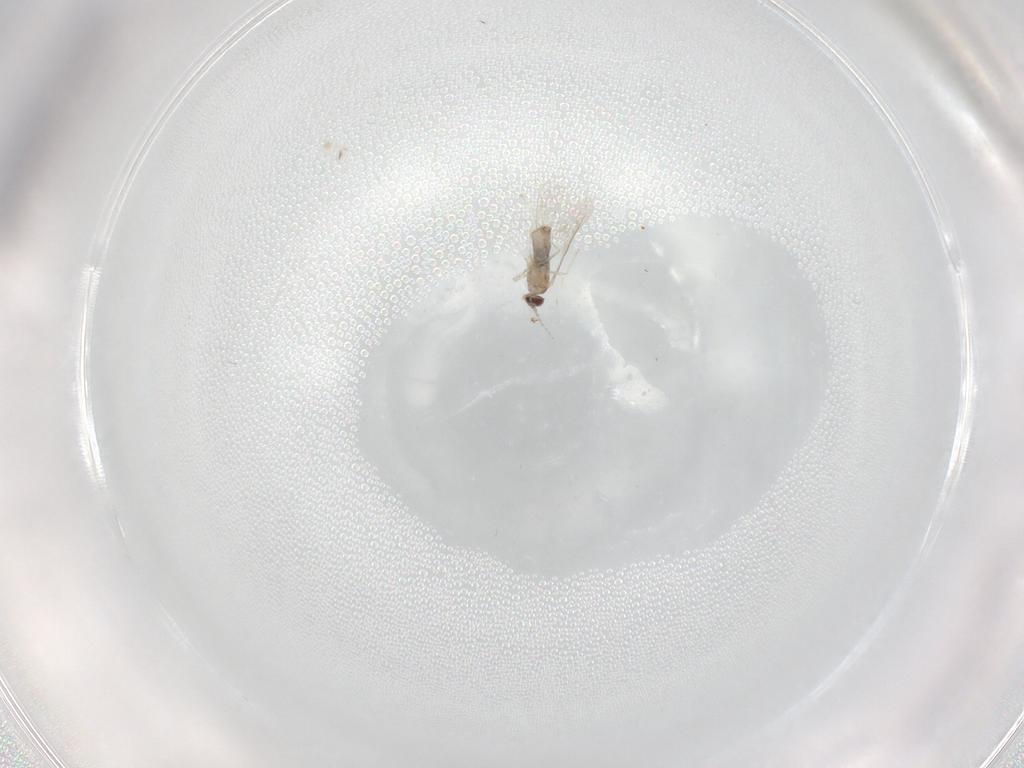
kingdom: Animalia
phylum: Arthropoda
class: Insecta
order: Diptera
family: Cecidomyiidae
